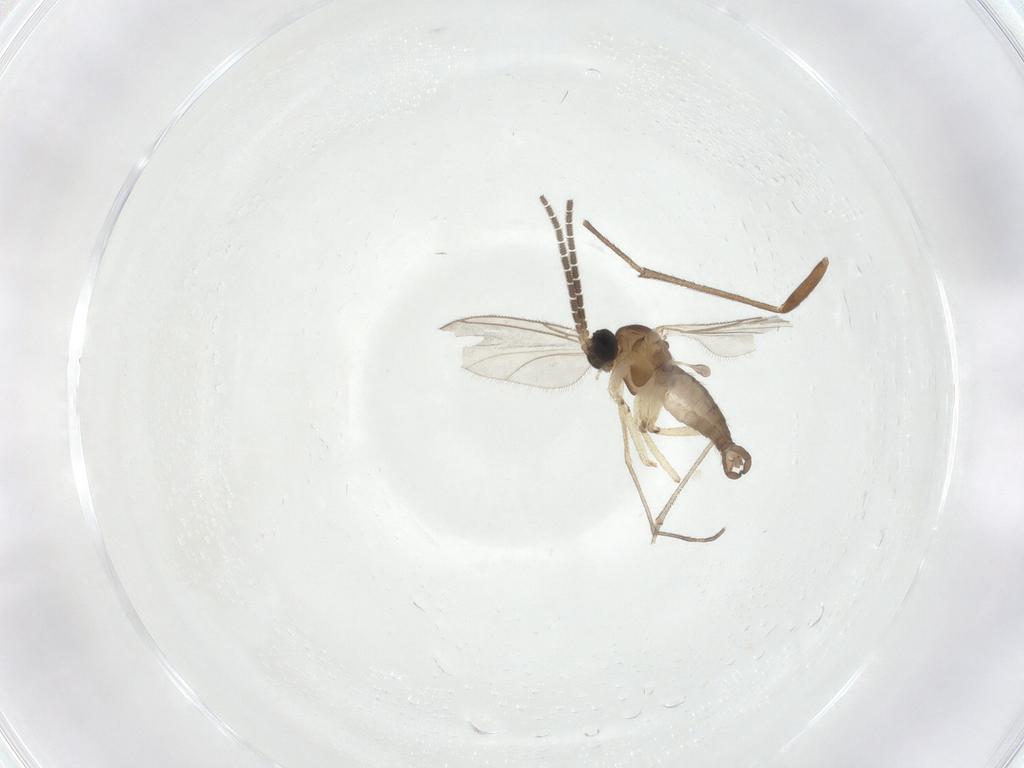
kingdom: Animalia
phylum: Arthropoda
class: Insecta
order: Diptera
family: Sciaridae
